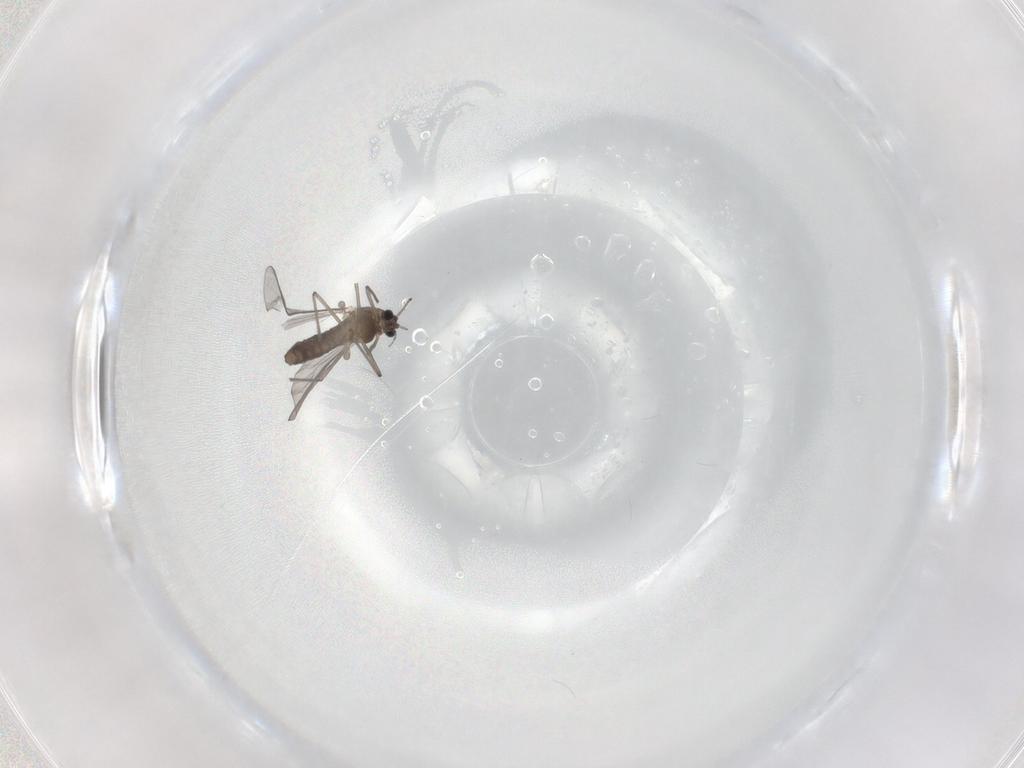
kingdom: Animalia
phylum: Arthropoda
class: Insecta
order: Diptera
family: Chironomidae
